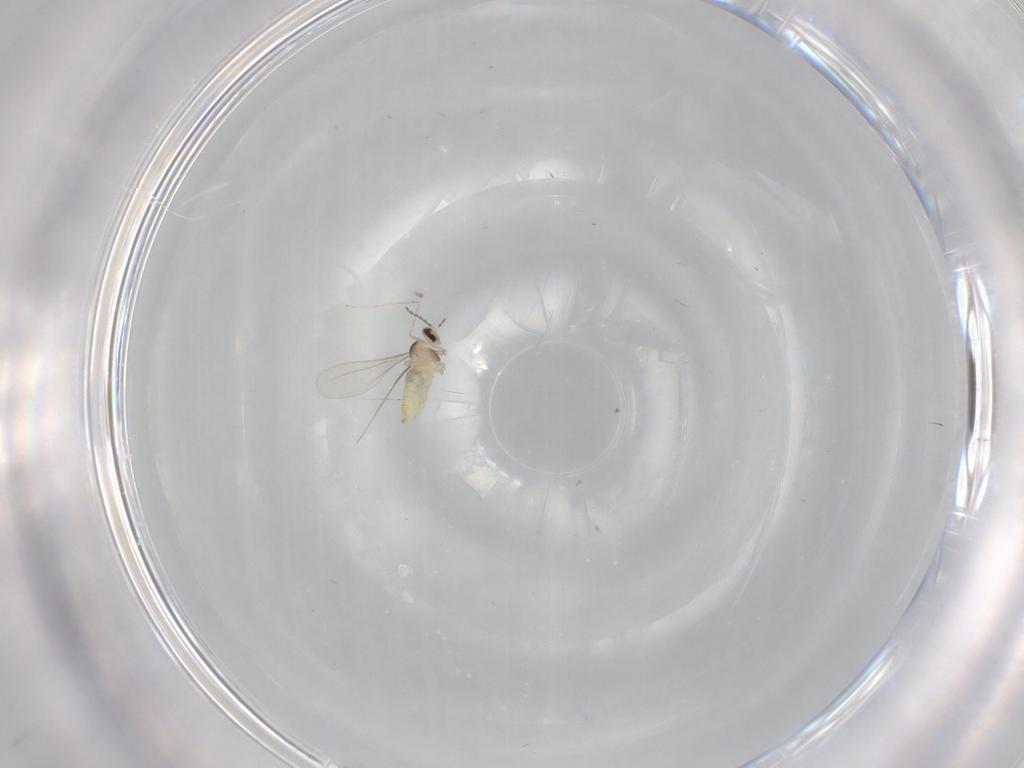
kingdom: Animalia
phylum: Arthropoda
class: Insecta
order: Diptera
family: Cecidomyiidae
